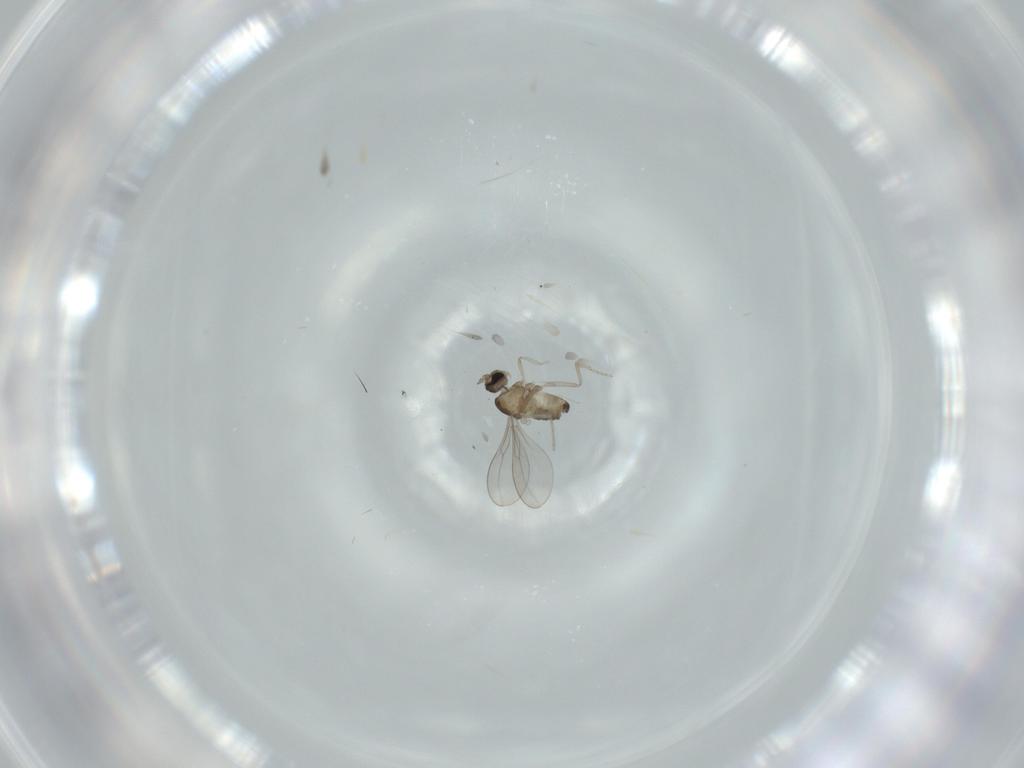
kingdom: Animalia
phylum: Arthropoda
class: Insecta
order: Diptera
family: Cecidomyiidae
